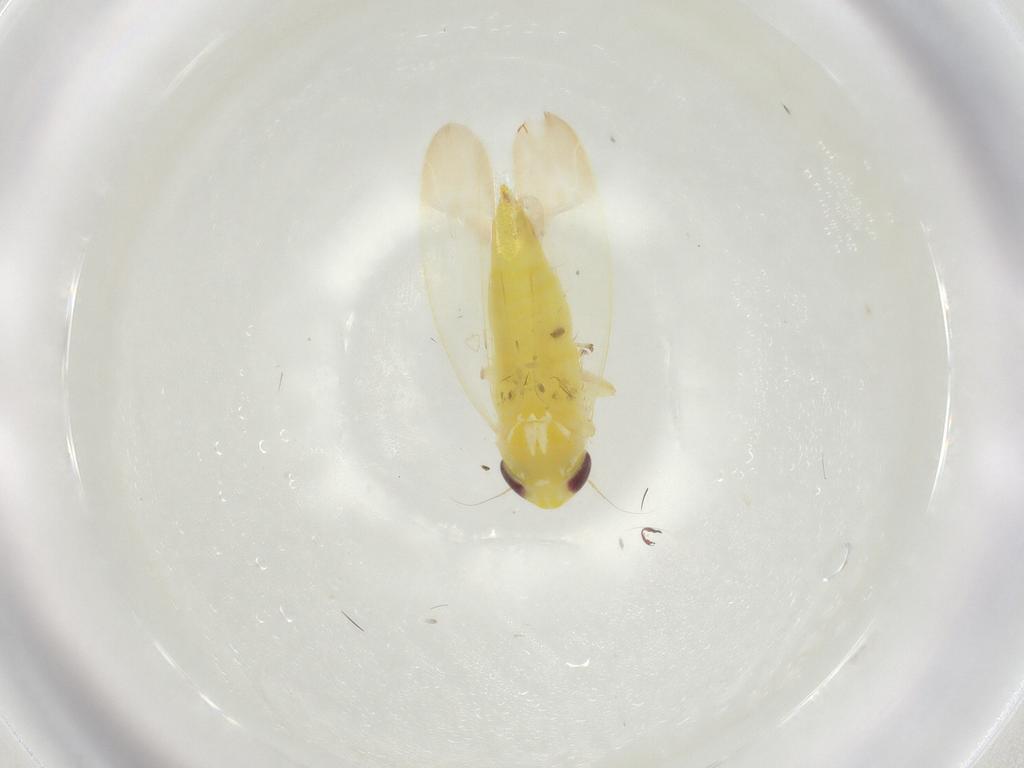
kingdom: Animalia
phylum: Arthropoda
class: Insecta
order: Hemiptera
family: Cicadellidae
